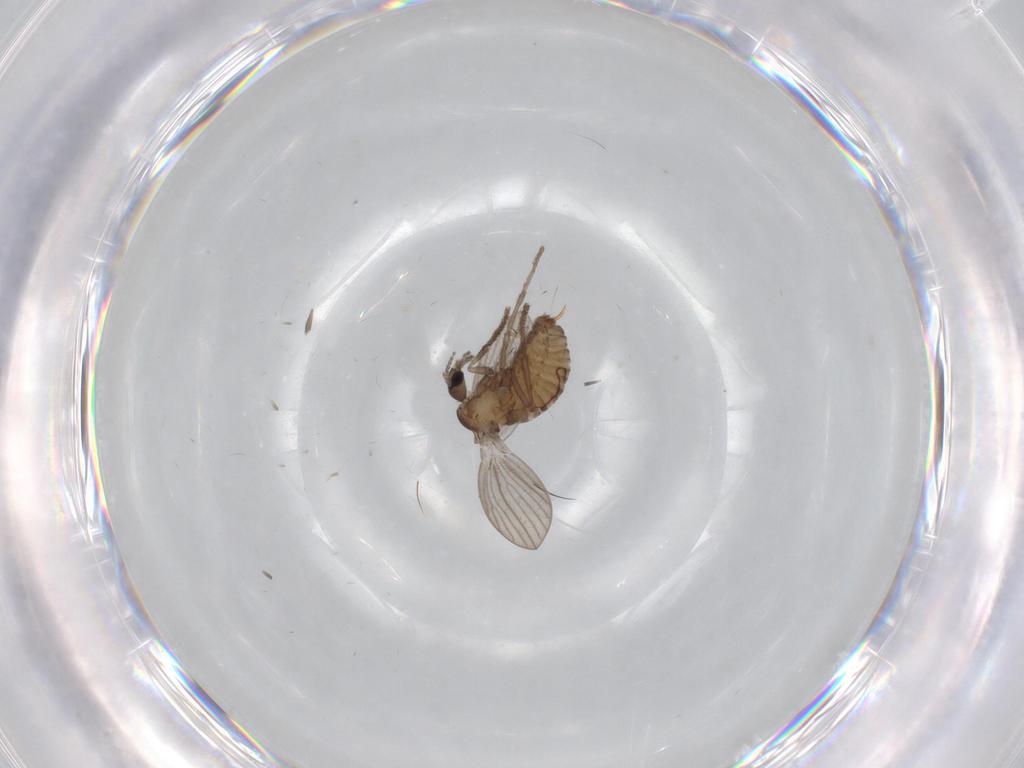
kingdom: Animalia
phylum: Arthropoda
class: Insecta
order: Diptera
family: Psychodidae
